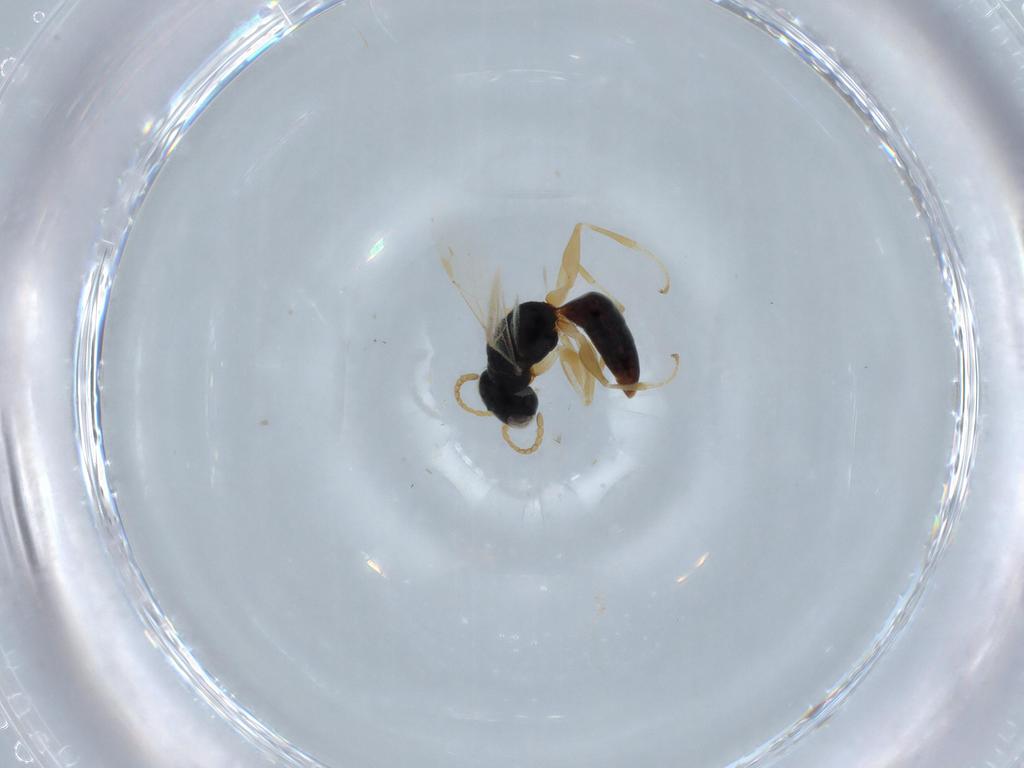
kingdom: Animalia
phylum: Arthropoda
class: Insecta
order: Hymenoptera
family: Dryinidae
